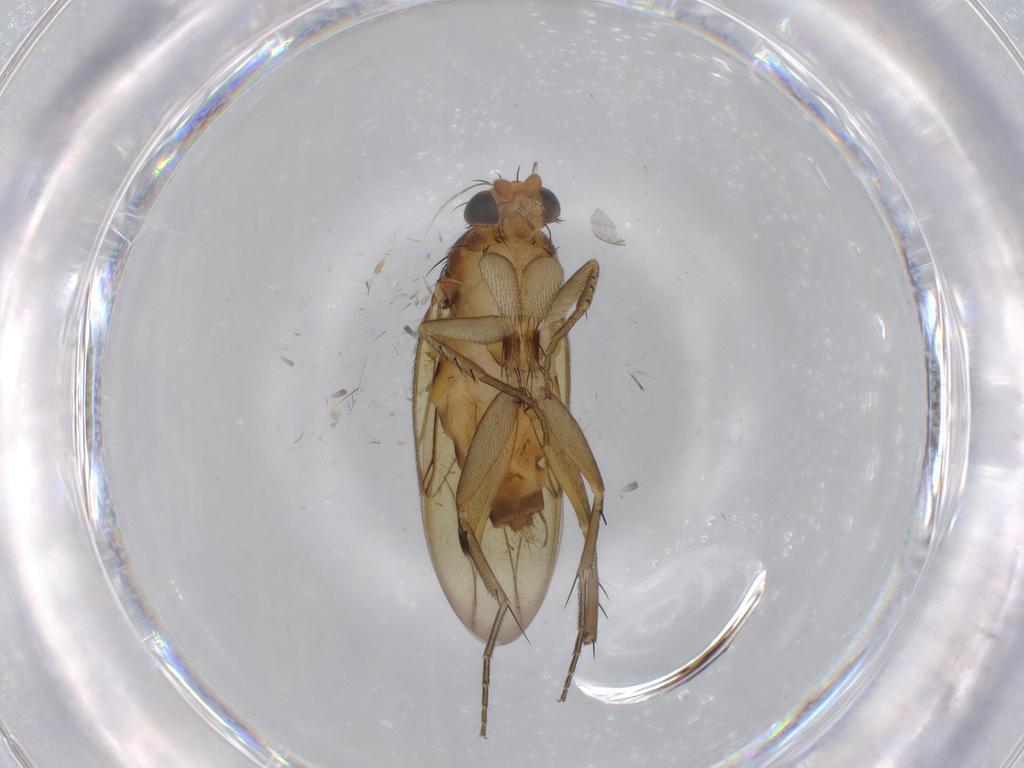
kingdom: Animalia
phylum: Arthropoda
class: Insecta
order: Diptera
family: Phoridae
